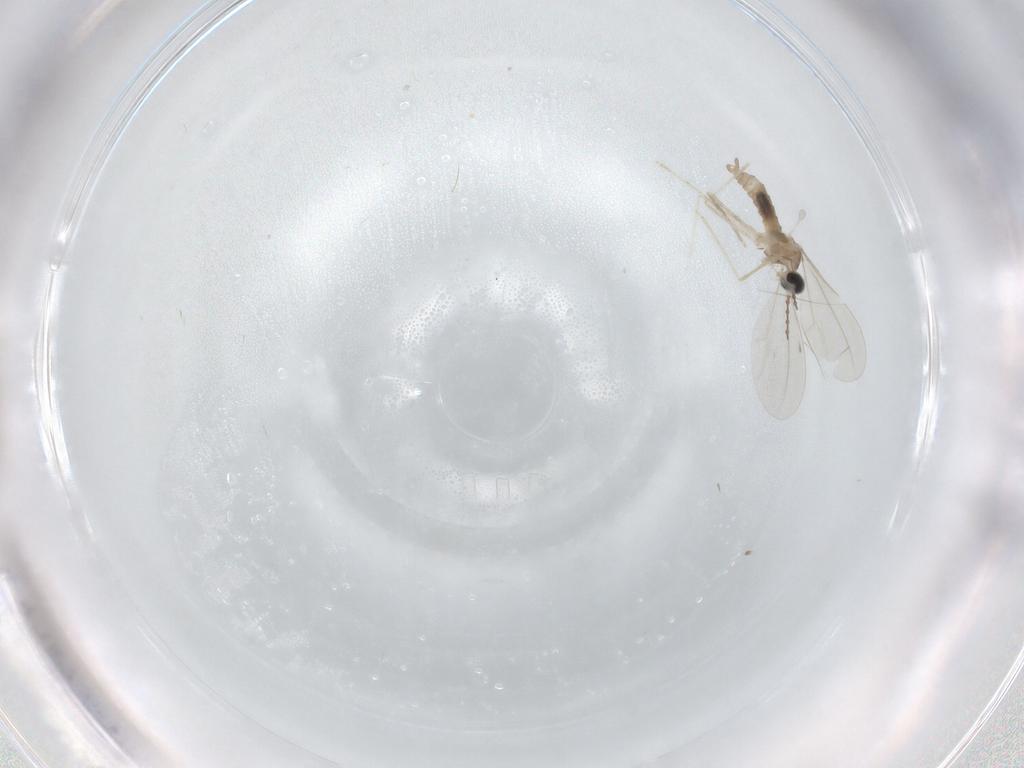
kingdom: Animalia
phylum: Arthropoda
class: Insecta
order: Diptera
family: Cecidomyiidae
